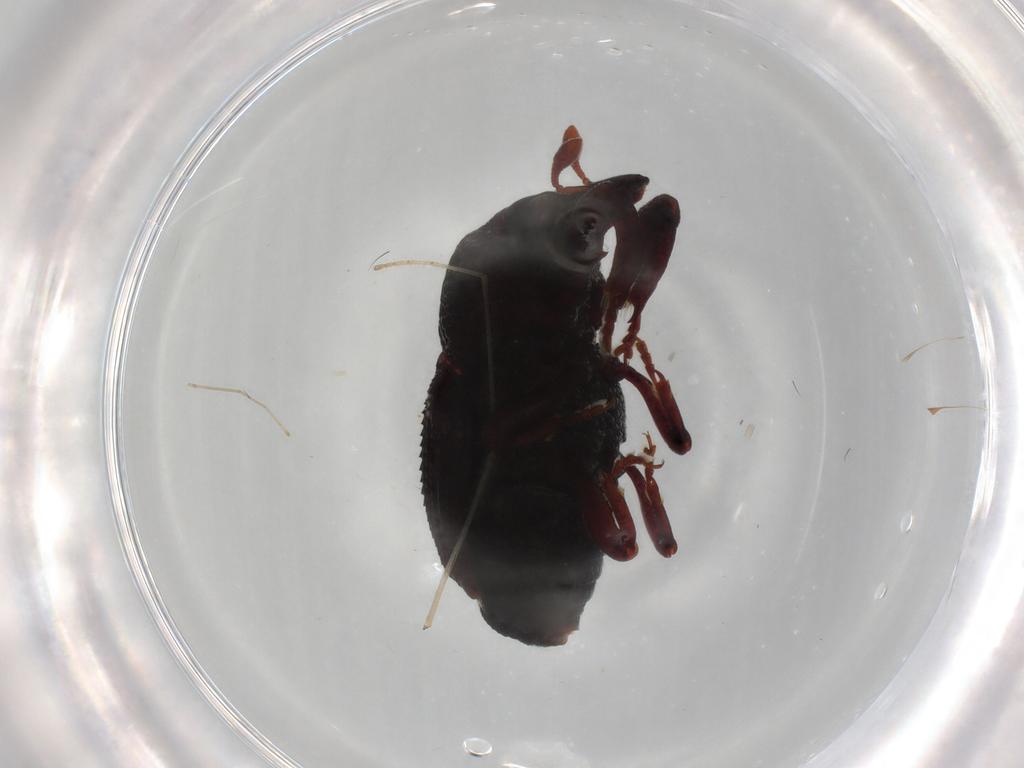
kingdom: Animalia
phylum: Arthropoda
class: Insecta
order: Coleoptera
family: Curculionidae
